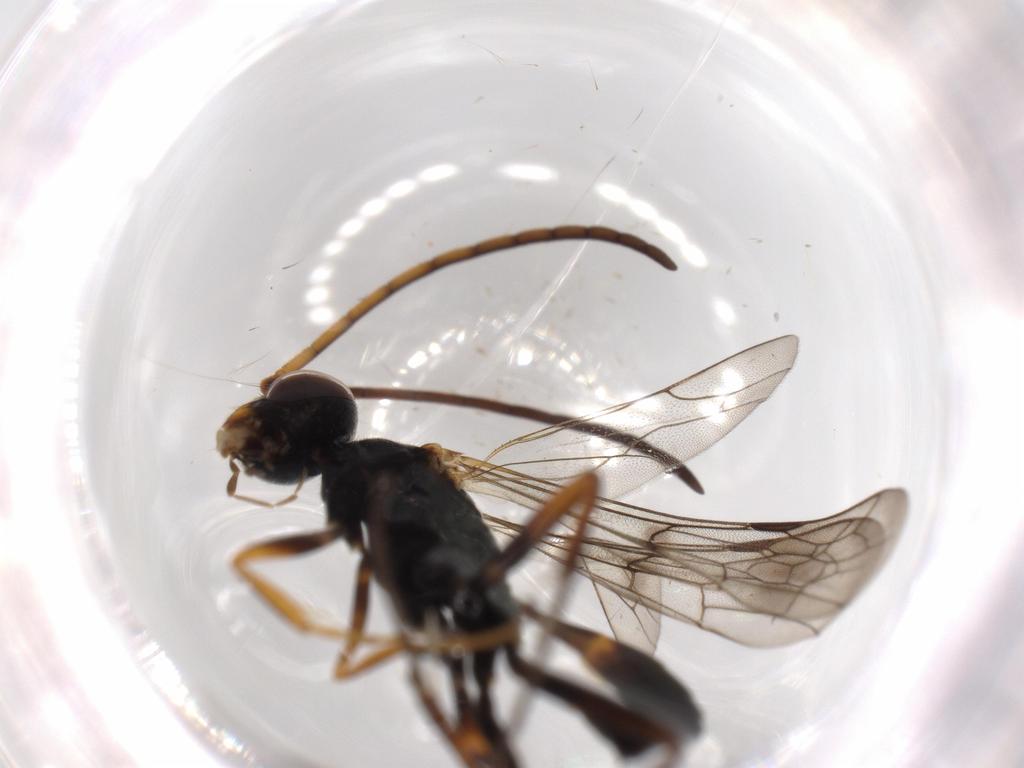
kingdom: Animalia
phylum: Arthropoda
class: Insecta
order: Hymenoptera
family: Pompilidae
